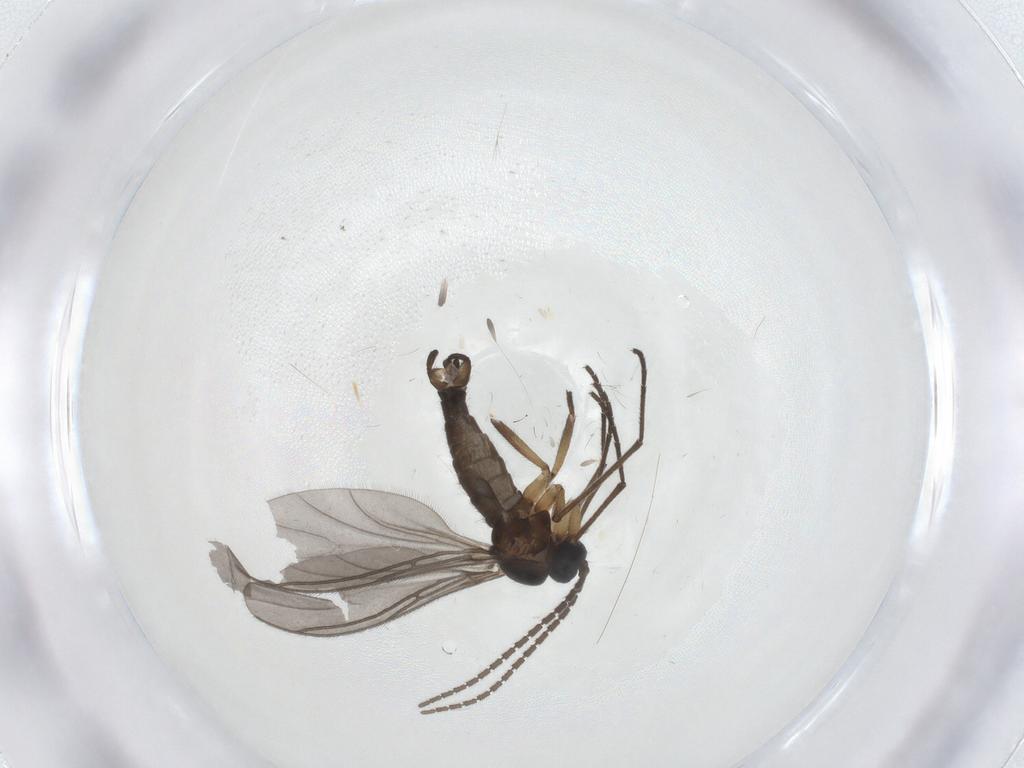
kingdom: Animalia
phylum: Arthropoda
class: Insecta
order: Diptera
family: Sciaridae
